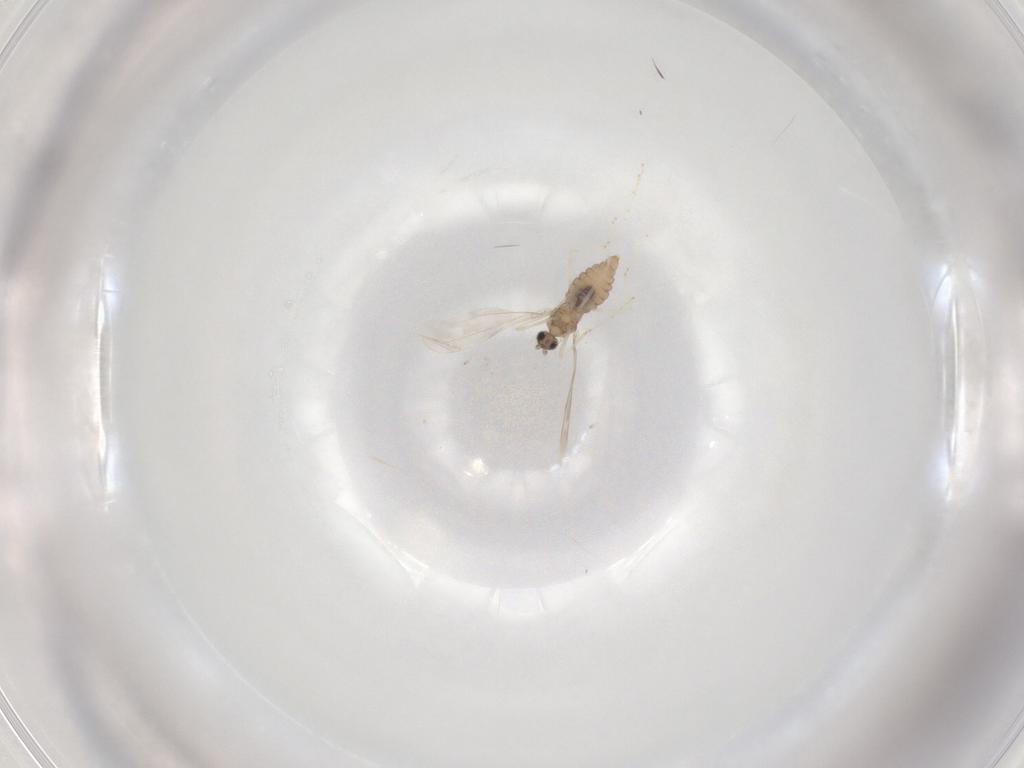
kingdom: Animalia
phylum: Arthropoda
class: Insecta
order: Diptera
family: Cecidomyiidae
